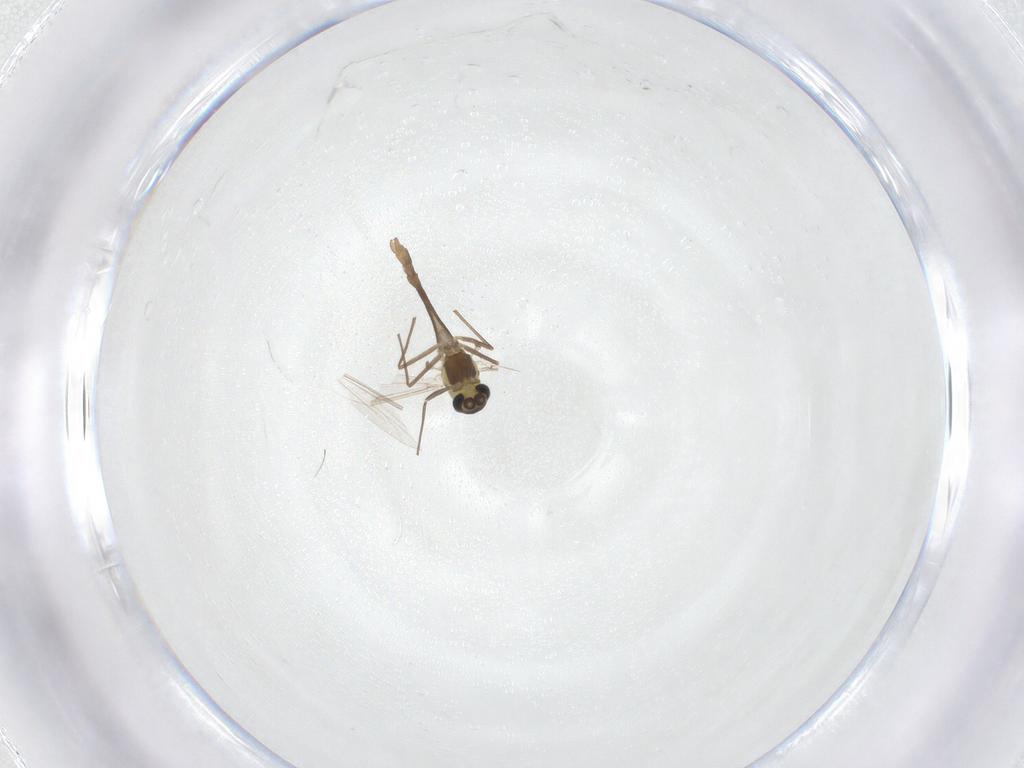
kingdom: Animalia
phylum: Arthropoda
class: Insecta
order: Diptera
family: Chironomidae
